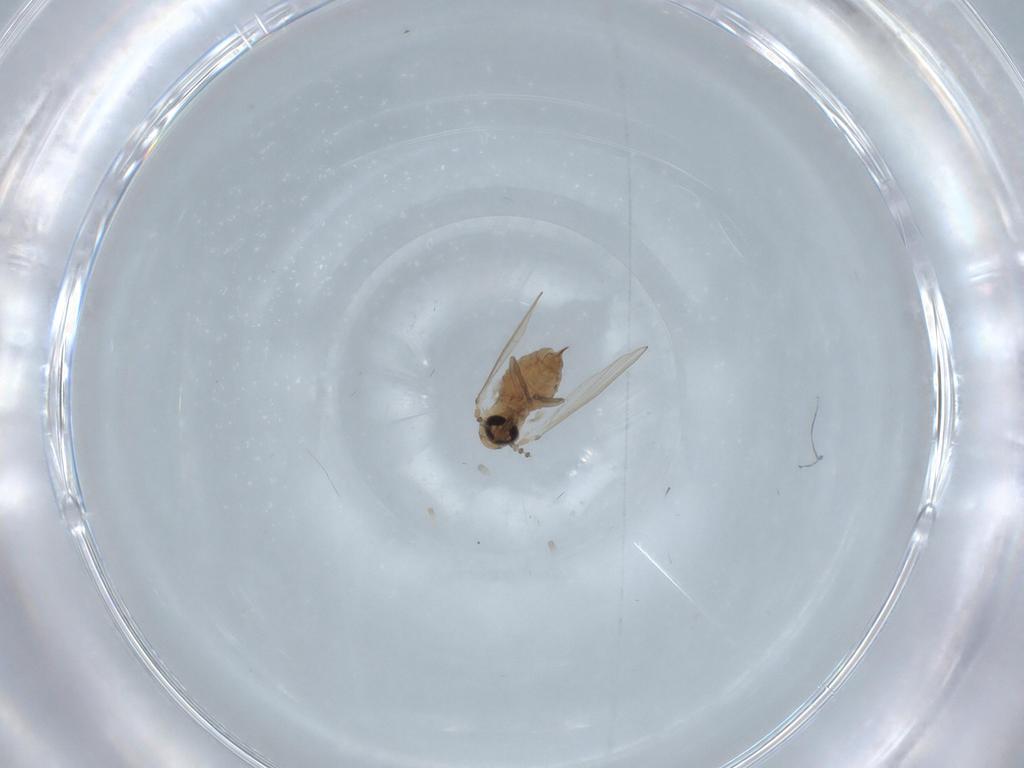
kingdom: Animalia
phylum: Arthropoda
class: Insecta
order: Diptera
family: Psychodidae
